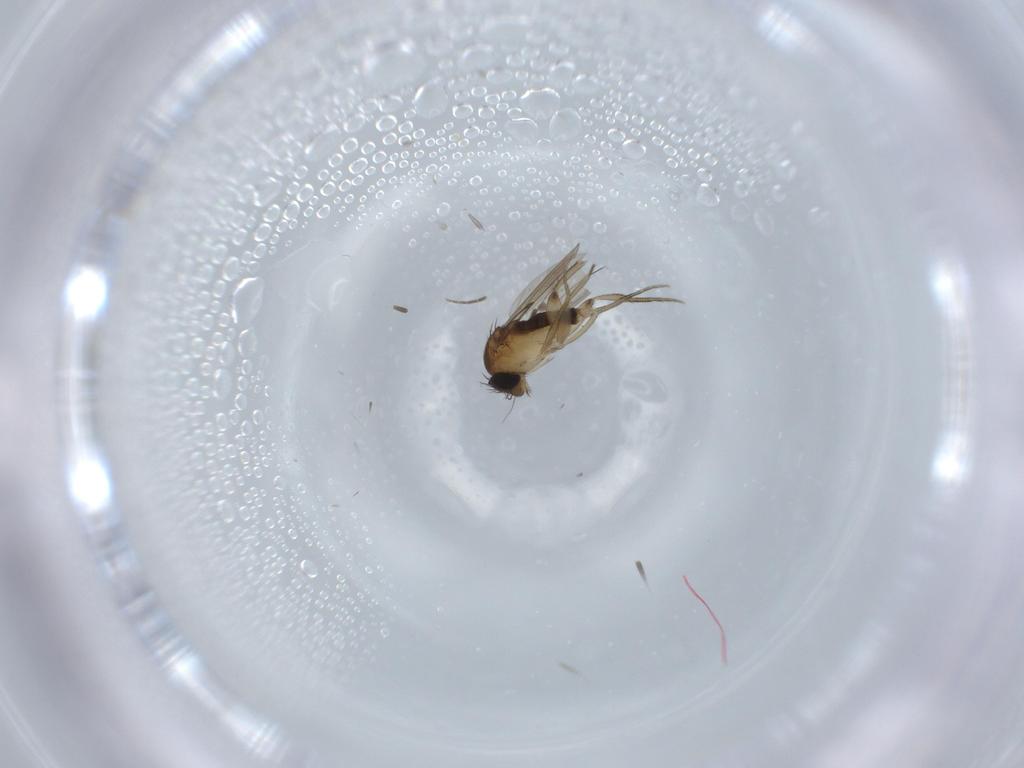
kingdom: Animalia
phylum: Arthropoda
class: Insecta
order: Diptera
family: Phoridae
